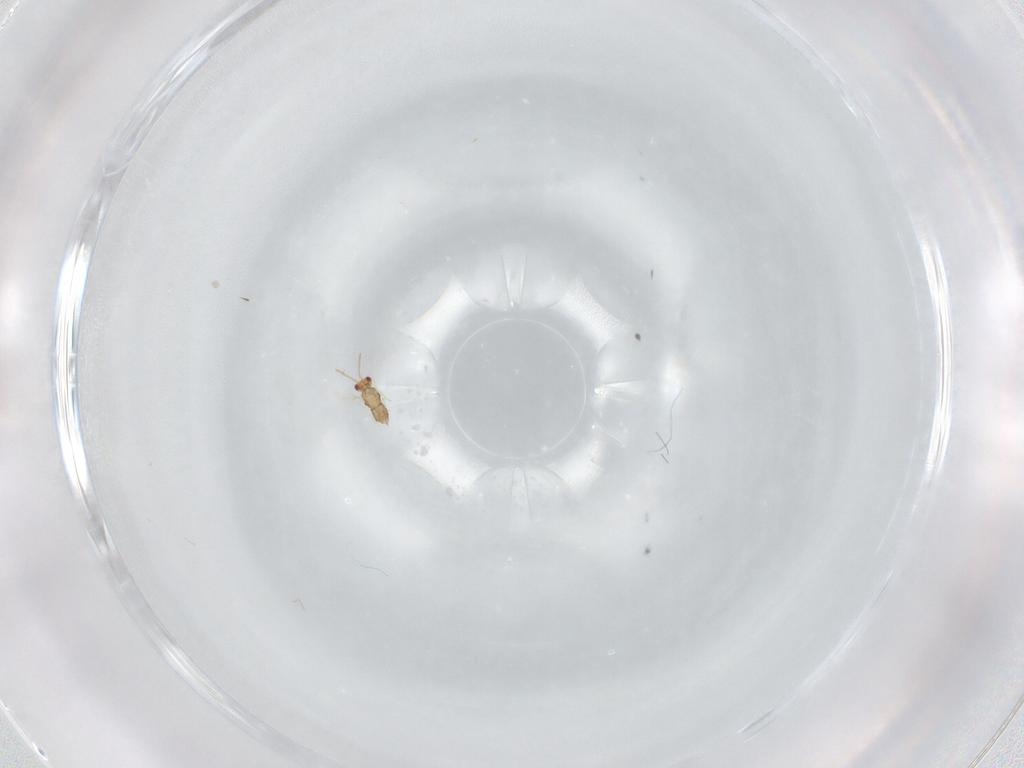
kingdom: Animalia
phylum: Arthropoda
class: Insecta
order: Hymenoptera
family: Aphelinidae
